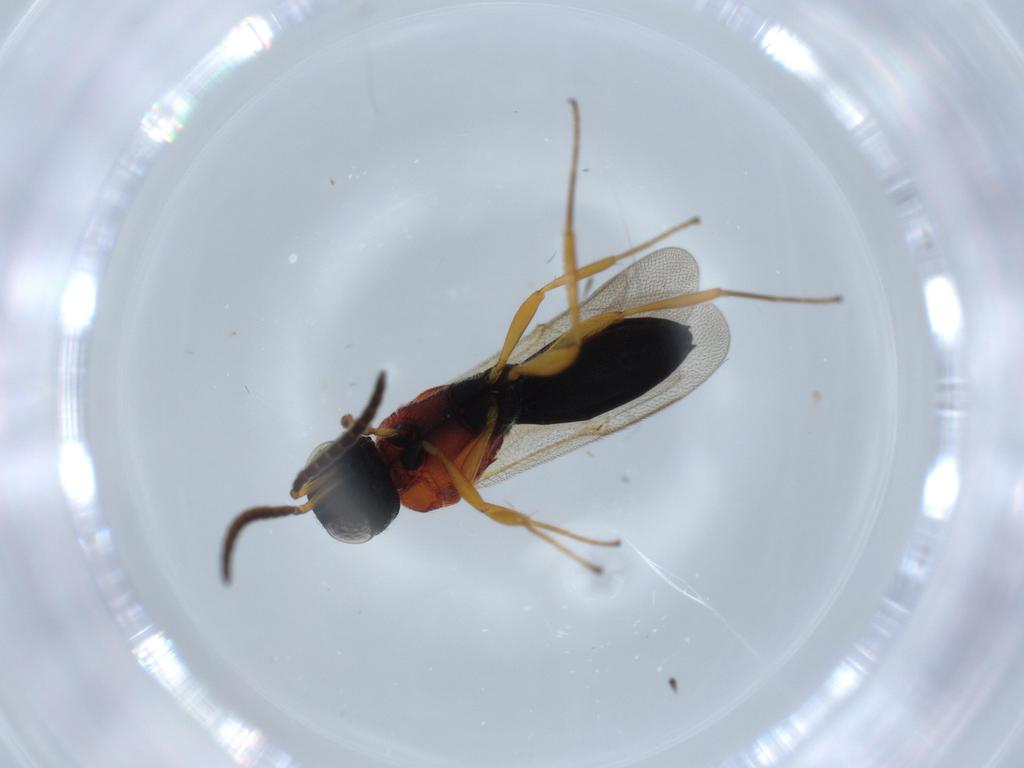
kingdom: Animalia
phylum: Arthropoda
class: Insecta
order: Hymenoptera
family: Scelionidae
